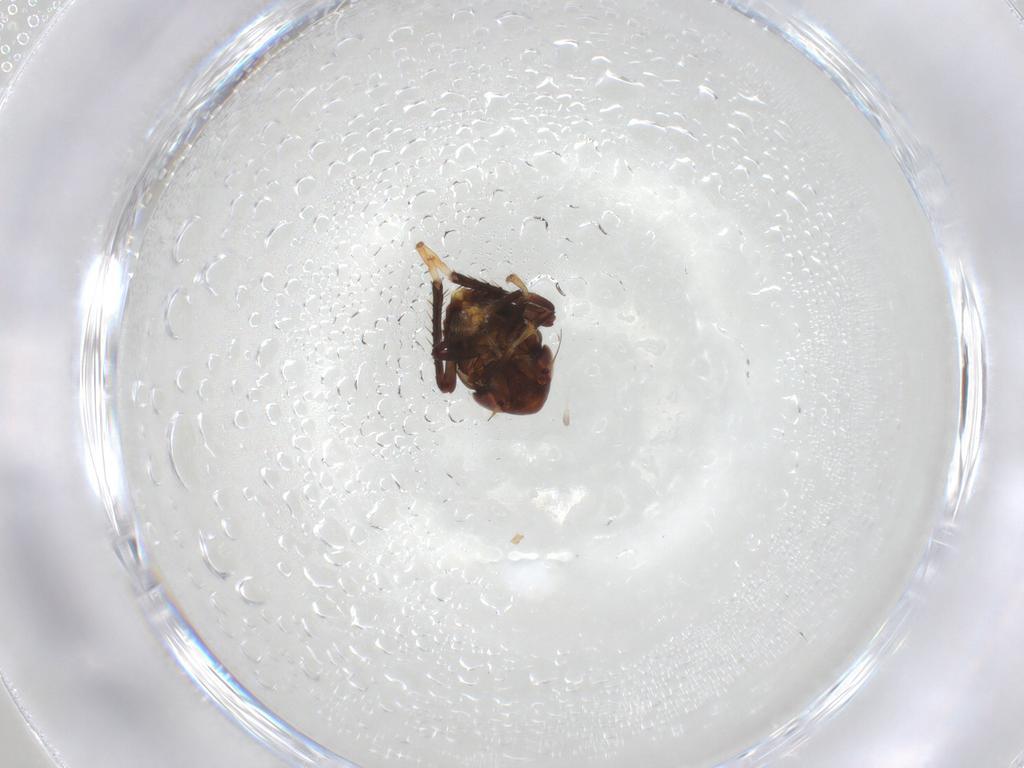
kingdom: Animalia
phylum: Arthropoda
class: Insecta
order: Hemiptera
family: Cicadellidae
